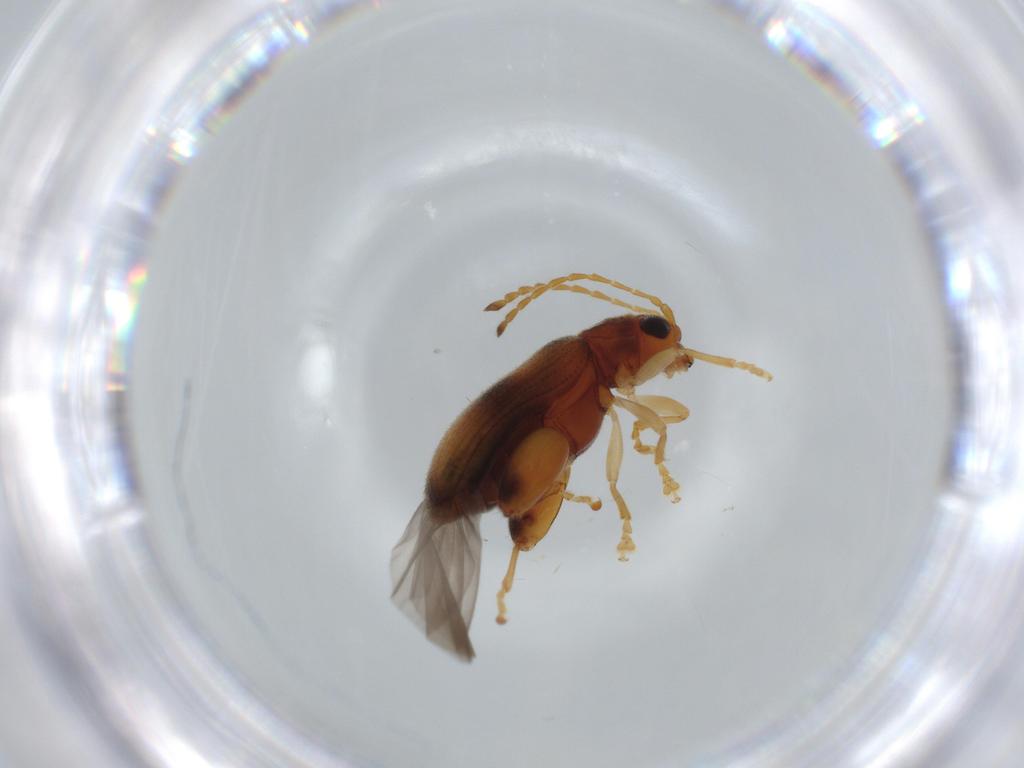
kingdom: Animalia
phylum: Arthropoda
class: Insecta
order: Coleoptera
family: Chrysomelidae
